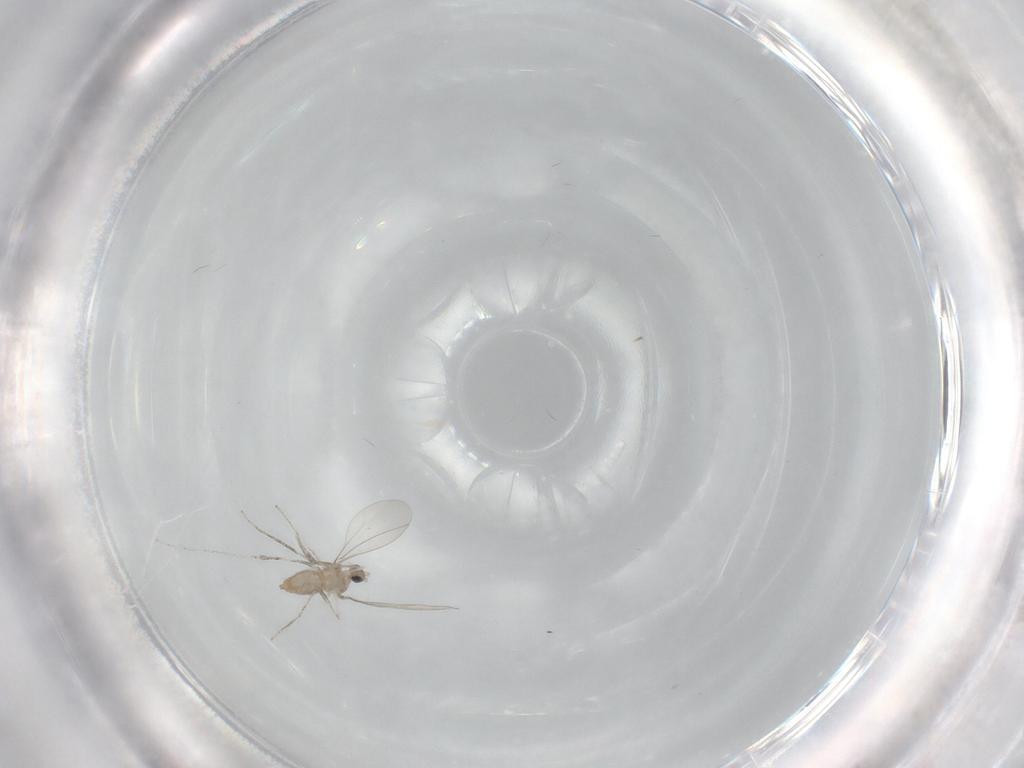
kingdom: Animalia
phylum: Arthropoda
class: Insecta
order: Diptera
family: Cecidomyiidae
